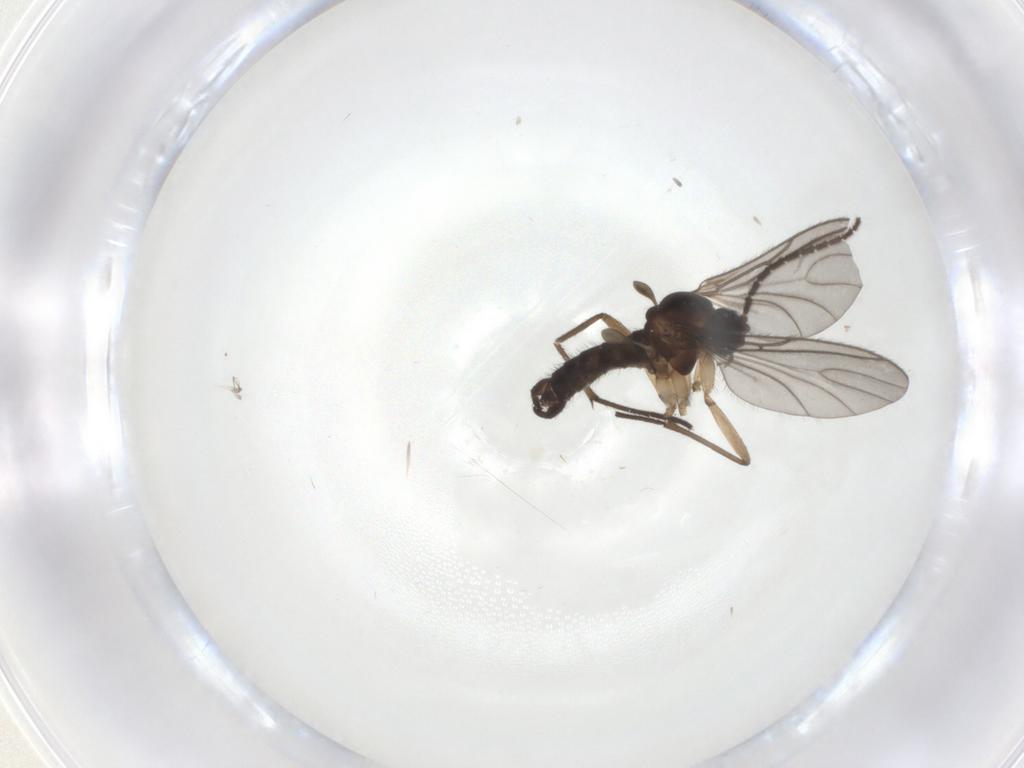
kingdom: Animalia
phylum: Arthropoda
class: Insecta
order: Diptera
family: Sciaridae
